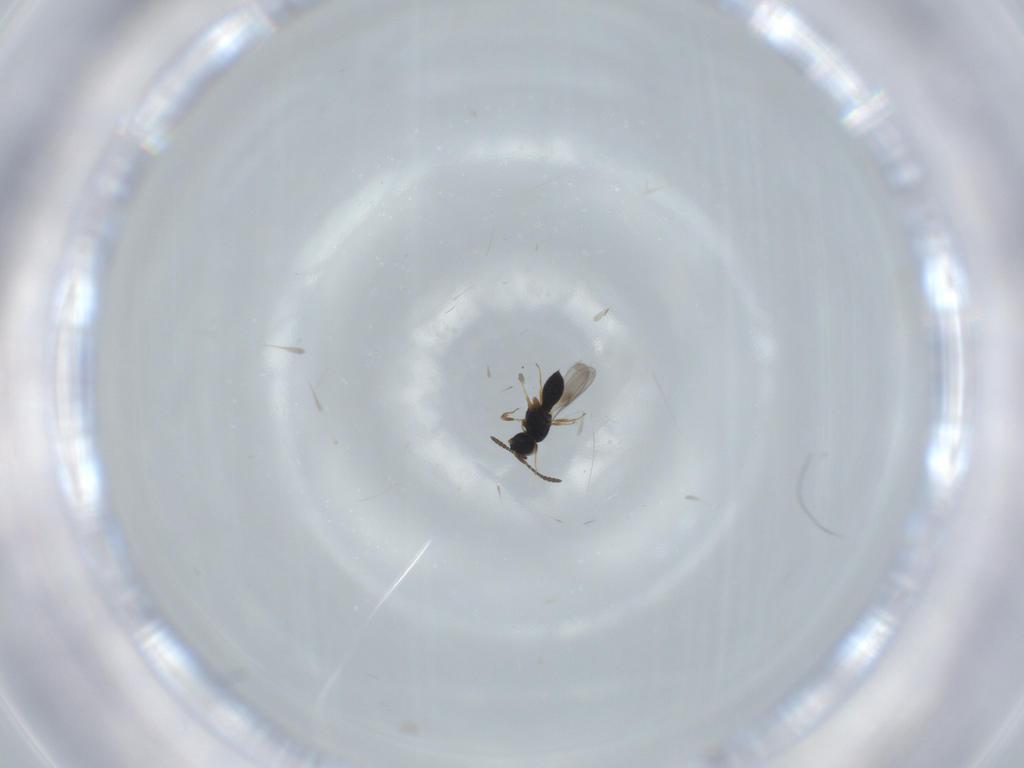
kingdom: Animalia
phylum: Arthropoda
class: Insecta
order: Hymenoptera
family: Scelionidae
